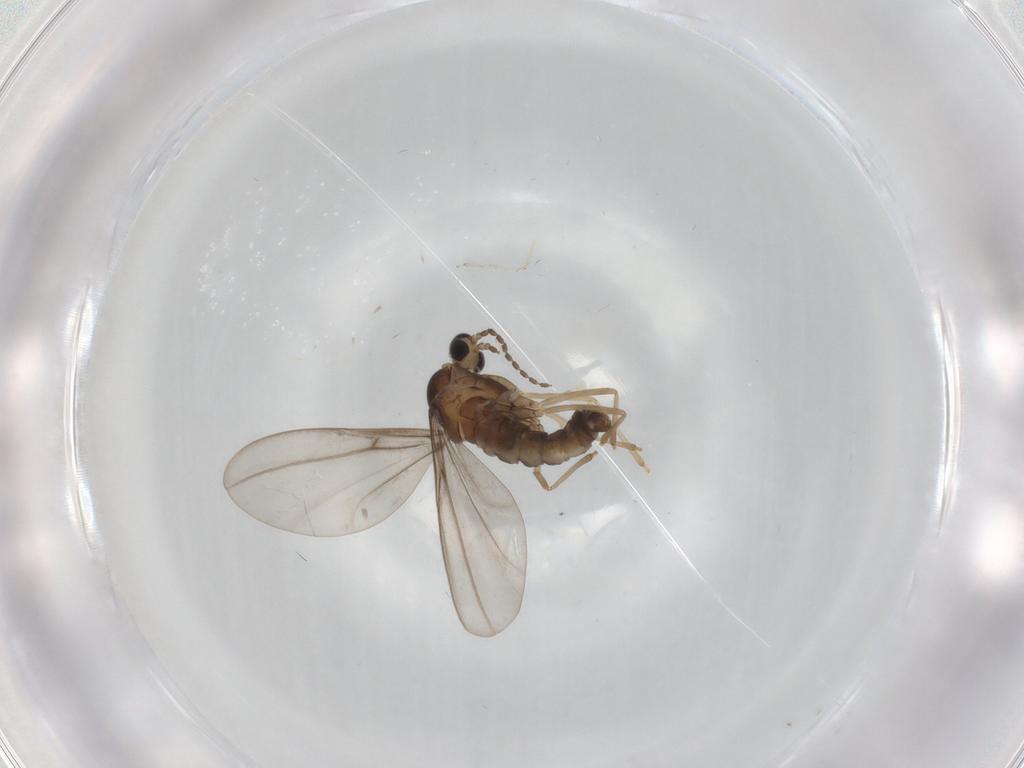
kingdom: Animalia
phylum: Arthropoda
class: Insecta
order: Diptera
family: Cecidomyiidae
